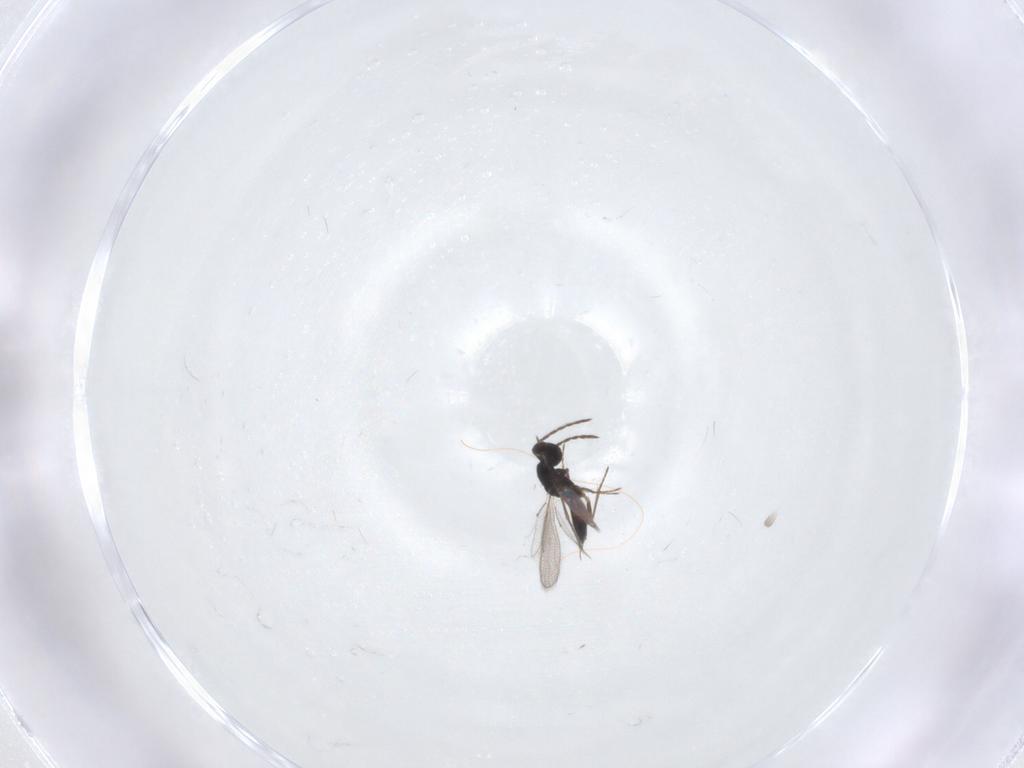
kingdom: Animalia
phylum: Arthropoda
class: Insecta
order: Hymenoptera
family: Eulophidae
